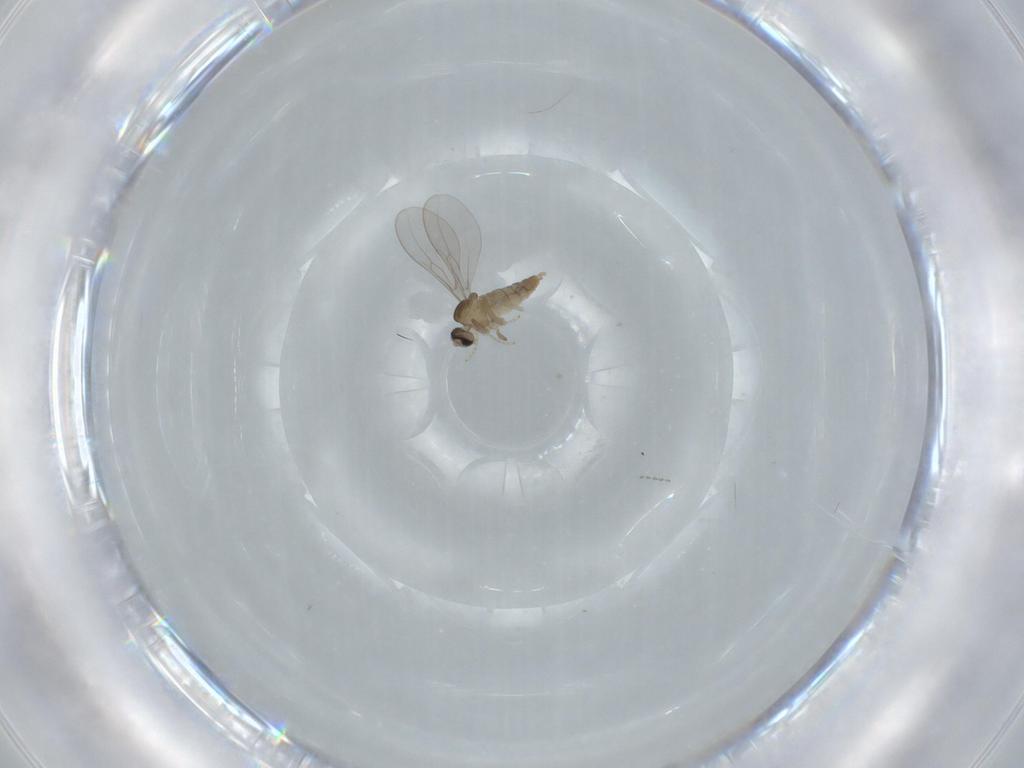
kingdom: Animalia
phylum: Arthropoda
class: Insecta
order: Diptera
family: Cecidomyiidae
